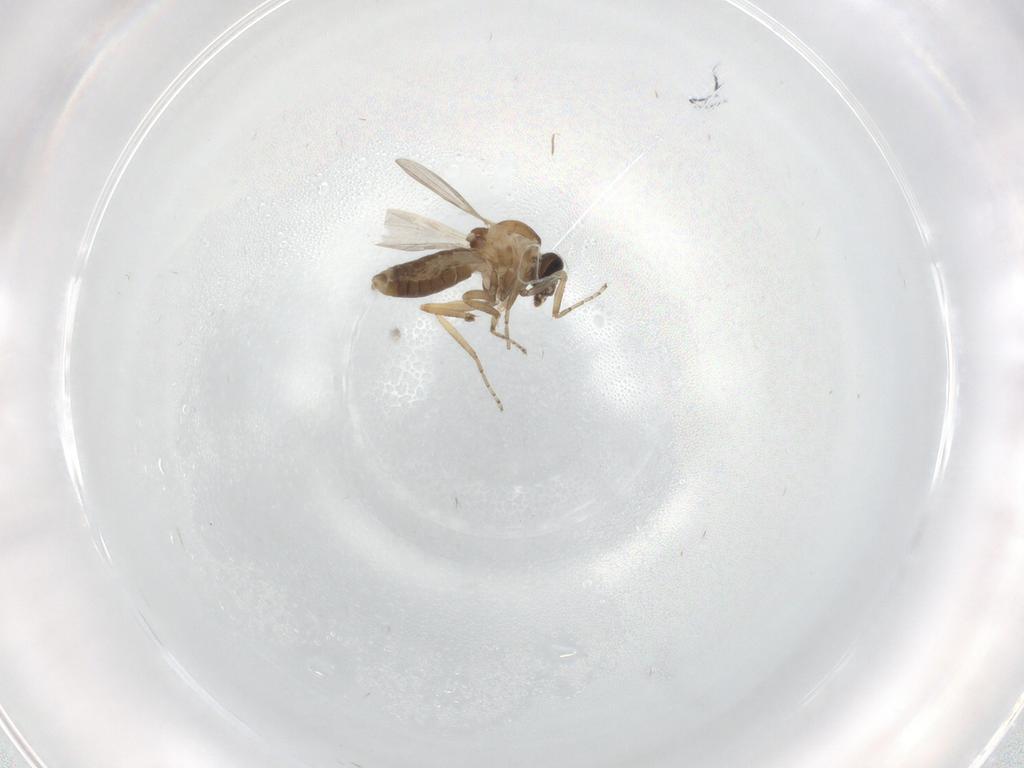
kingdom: Animalia
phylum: Arthropoda
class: Insecta
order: Diptera
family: Ceratopogonidae
